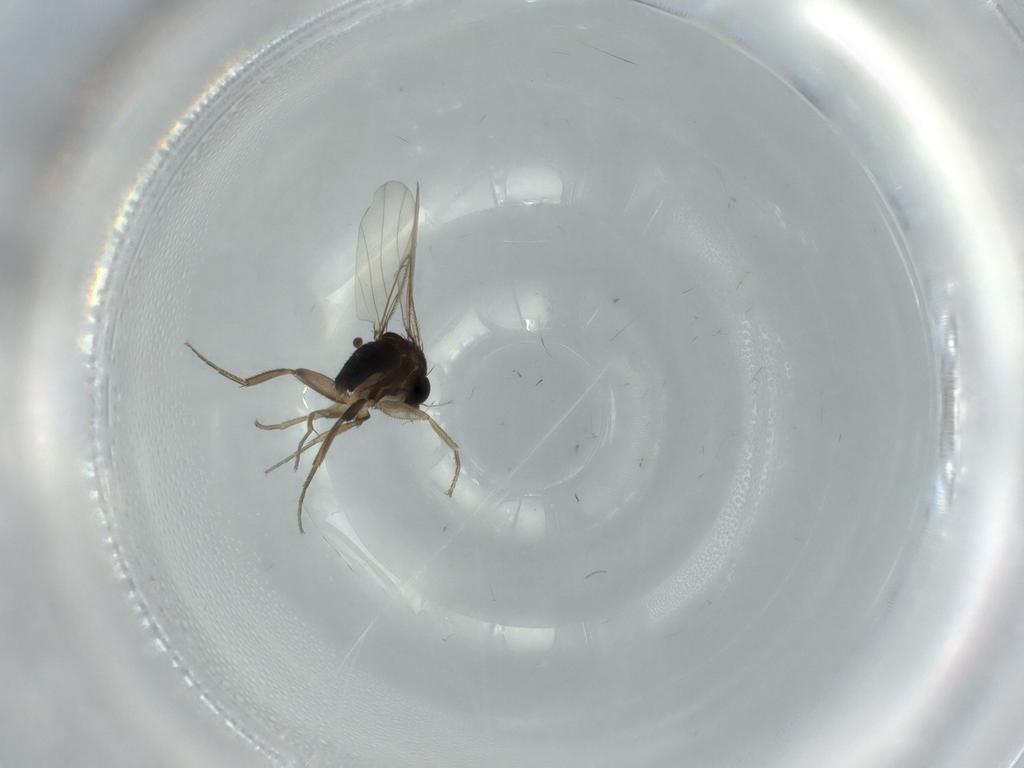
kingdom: Animalia
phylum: Arthropoda
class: Insecta
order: Diptera
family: Phoridae
